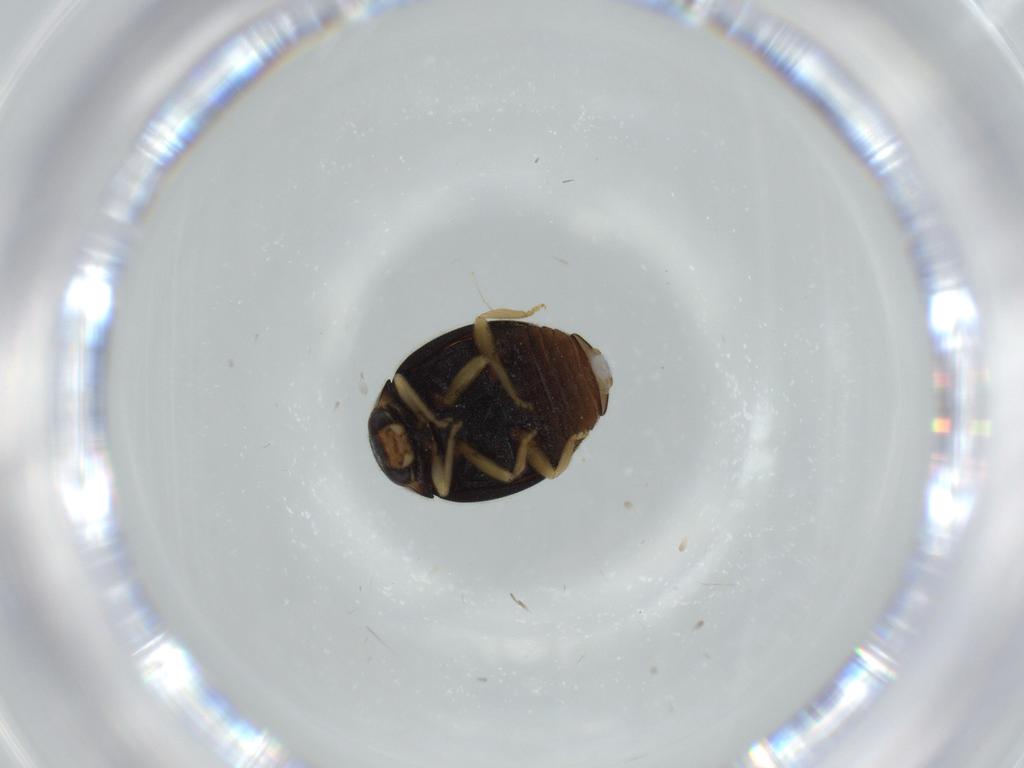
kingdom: Animalia
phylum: Arthropoda
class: Insecta
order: Coleoptera
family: Coccinellidae
